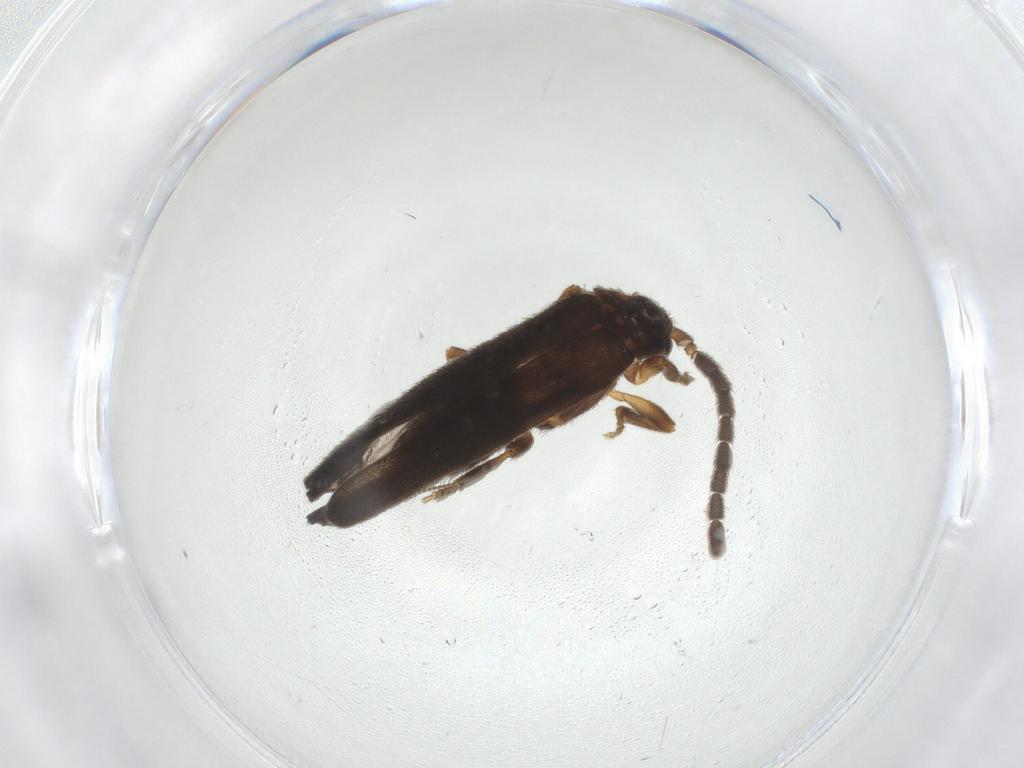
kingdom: Animalia
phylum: Arthropoda
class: Insecta
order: Coleoptera
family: Lycidae
